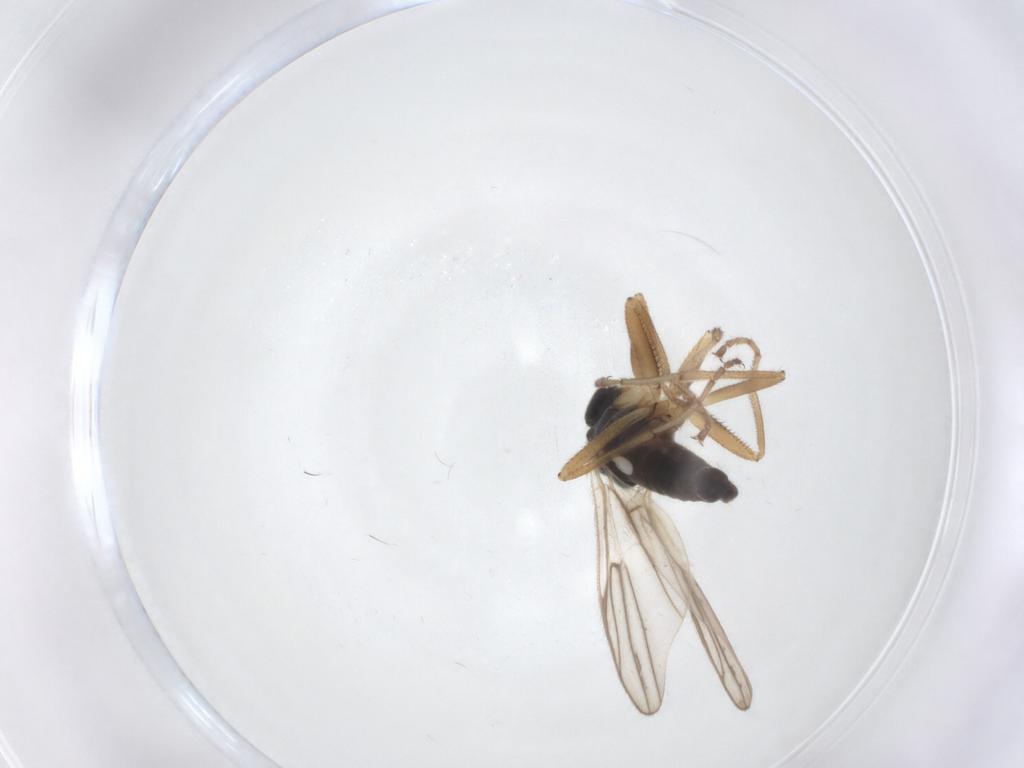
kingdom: Animalia
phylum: Arthropoda
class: Insecta
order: Diptera
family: Hybotidae
